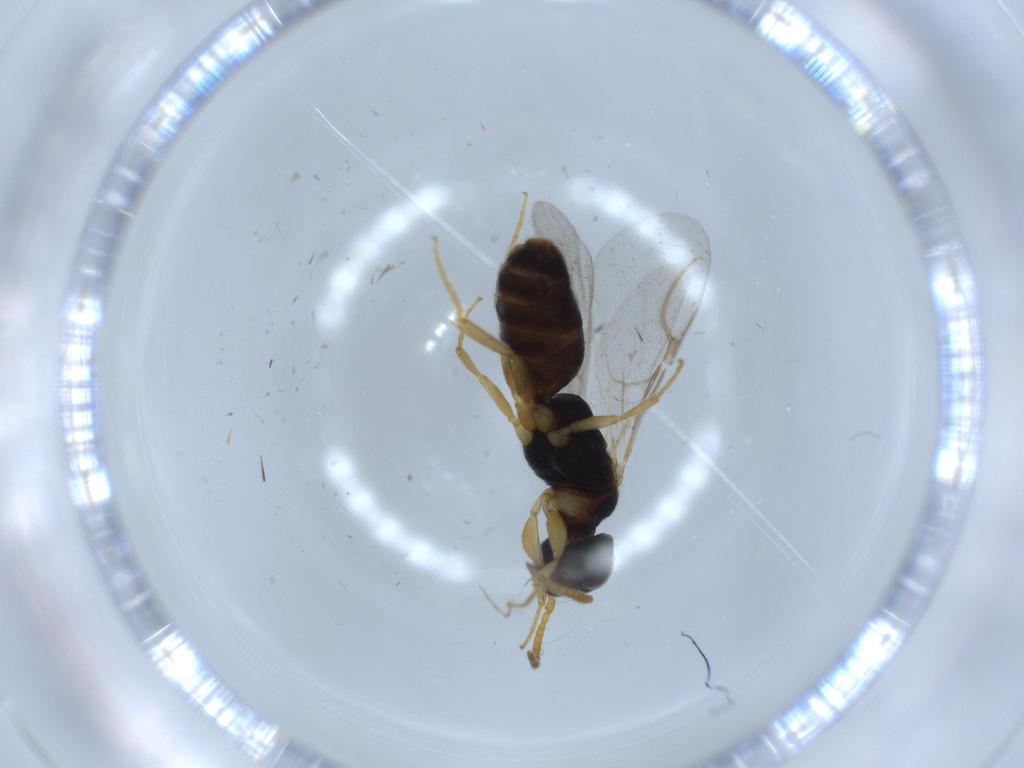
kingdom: Animalia
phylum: Arthropoda
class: Insecta
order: Hymenoptera
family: Bethylidae
